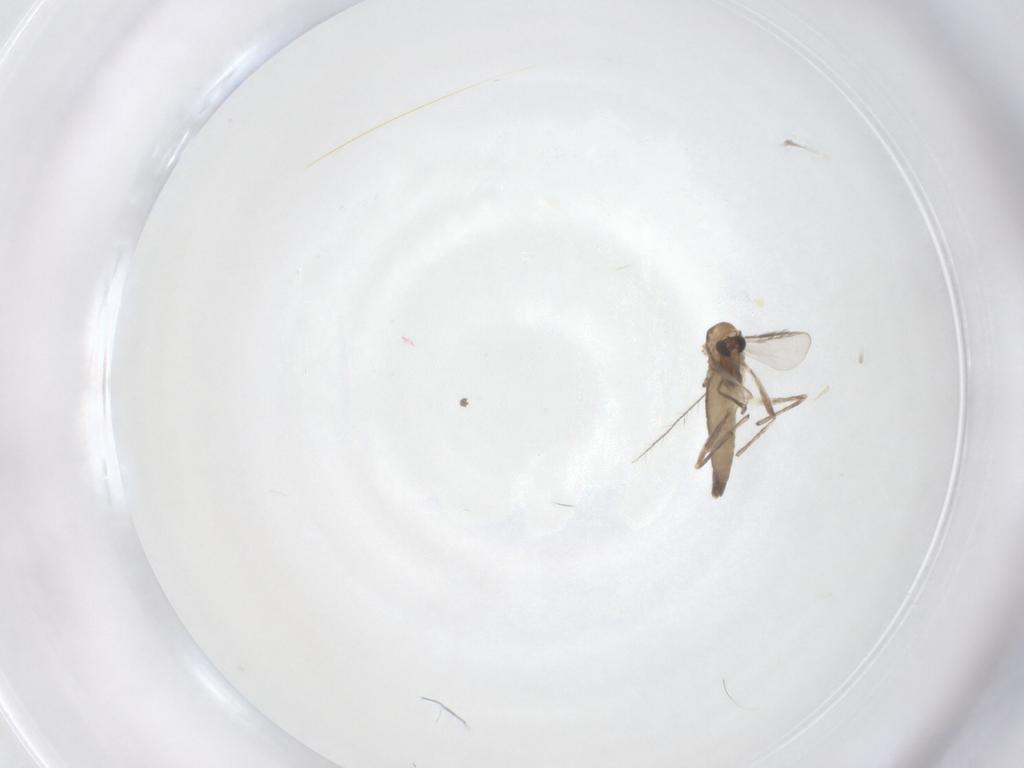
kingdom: Animalia
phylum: Arthropoda
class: Insecta
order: Diptera
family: Chironomidae
